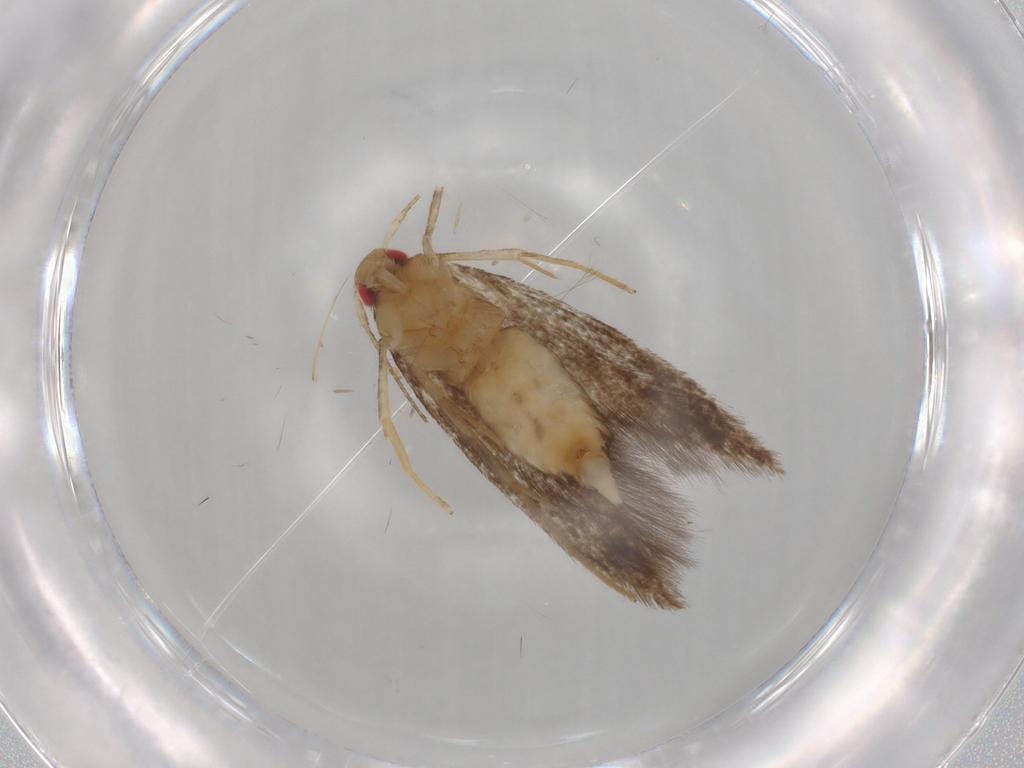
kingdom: Animalia
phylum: Arthropoda
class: Insecta
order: Lepidoptera
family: Cosmopterigidae
